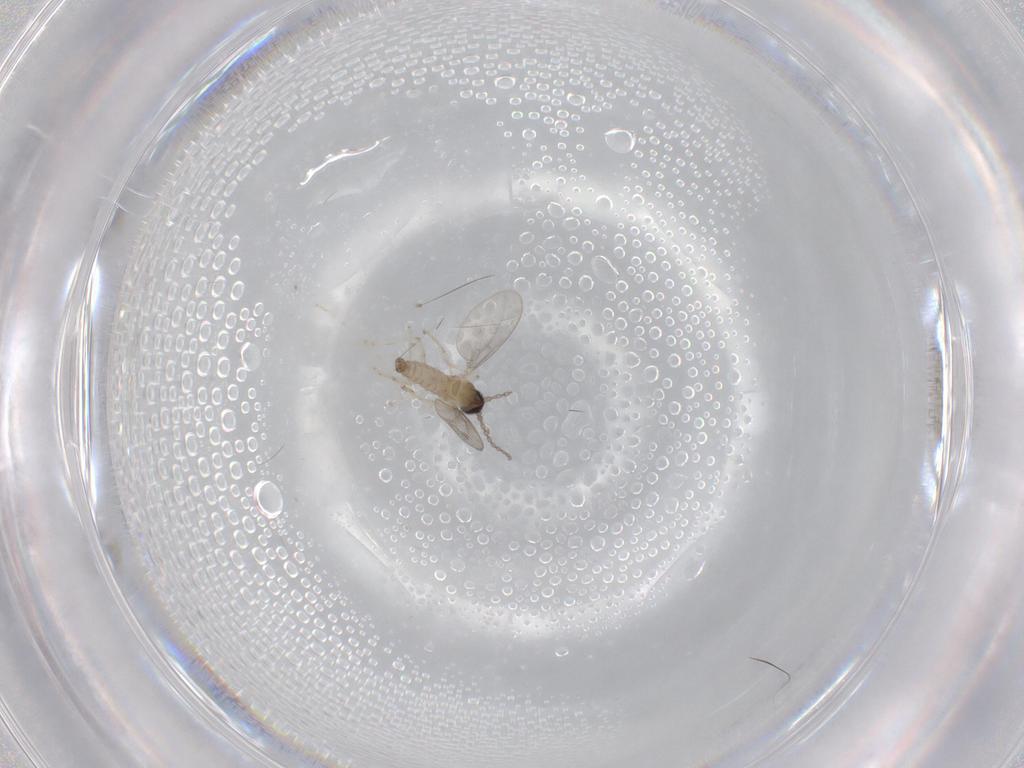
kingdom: Animalia
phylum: Arthropoda
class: Insecta
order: Diptera
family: Cecidomyiidae
